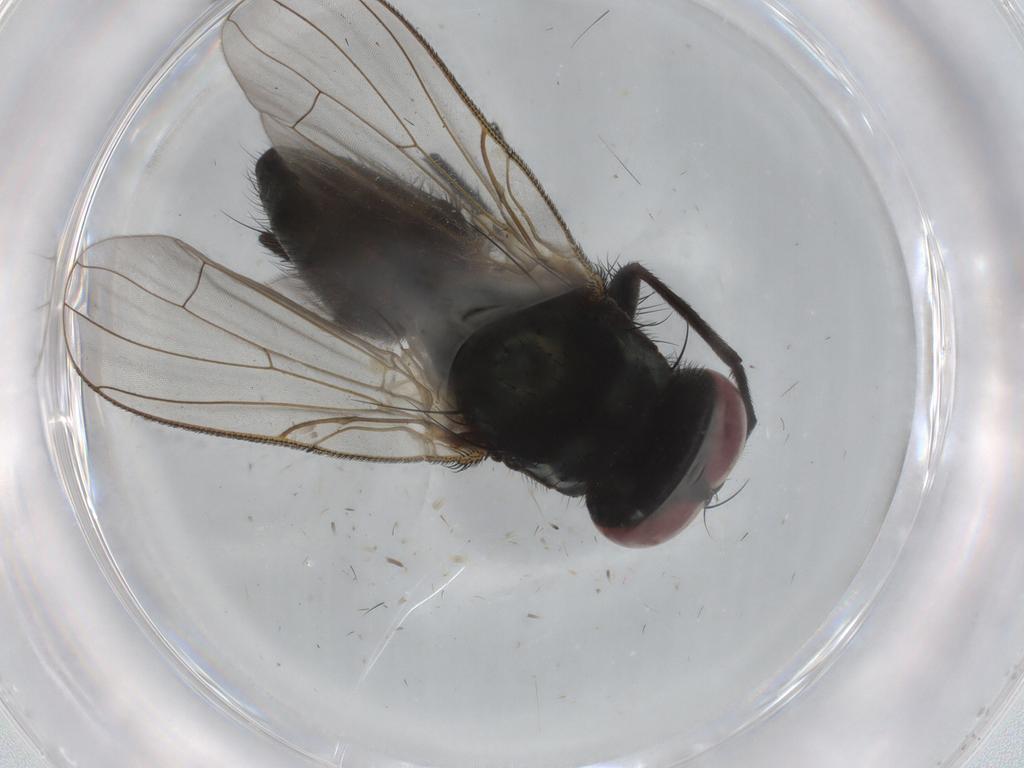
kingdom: Animalia
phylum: Arthropoda
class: Insecta
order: Diptera
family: Muscidae
